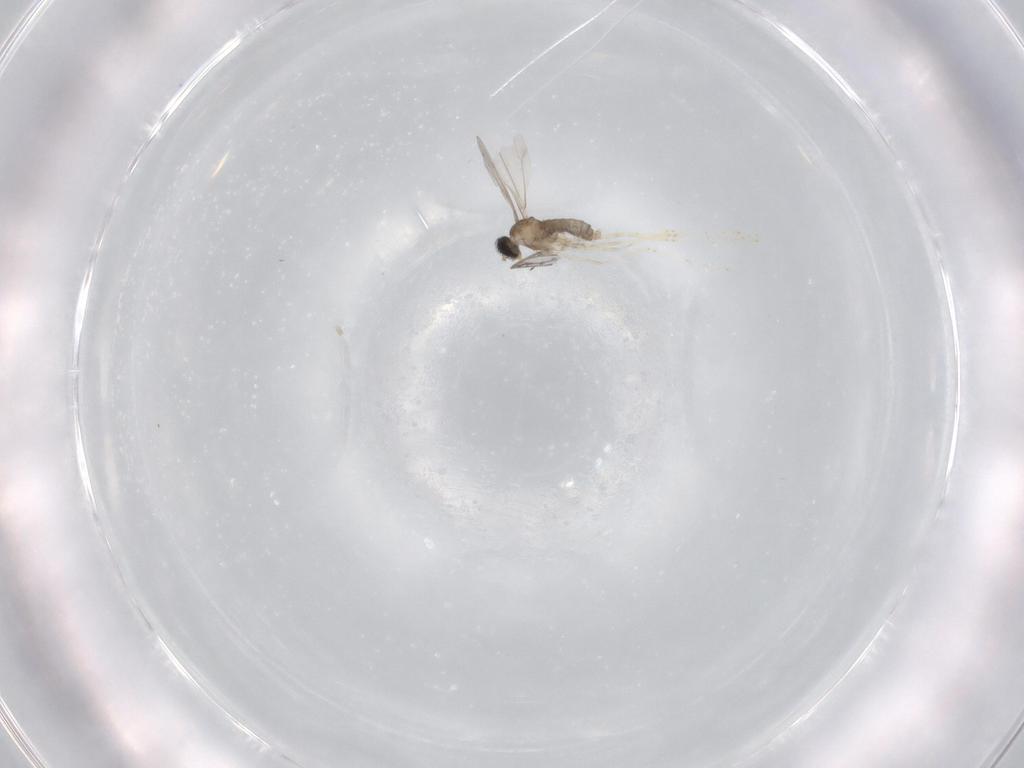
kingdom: Animalia
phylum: Arthropoda
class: Insecta
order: Diptera
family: Cecidomyiidae
